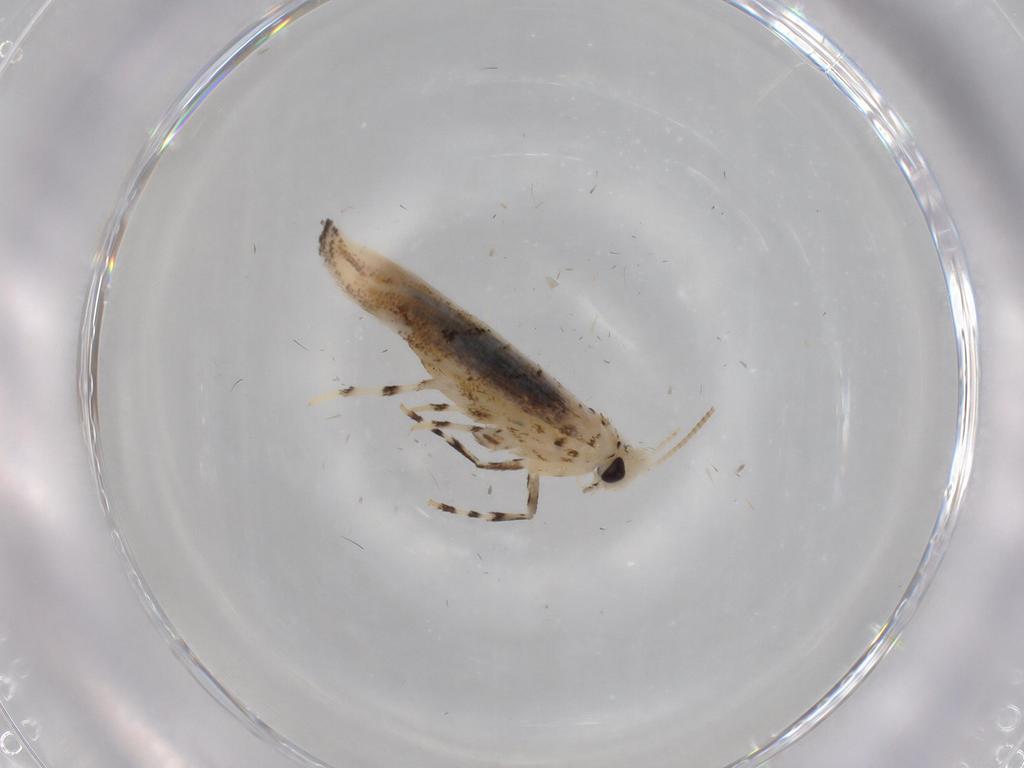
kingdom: Animalia
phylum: Arthropoda
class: Insecta
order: Lepidoptera
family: Gracillariidae
